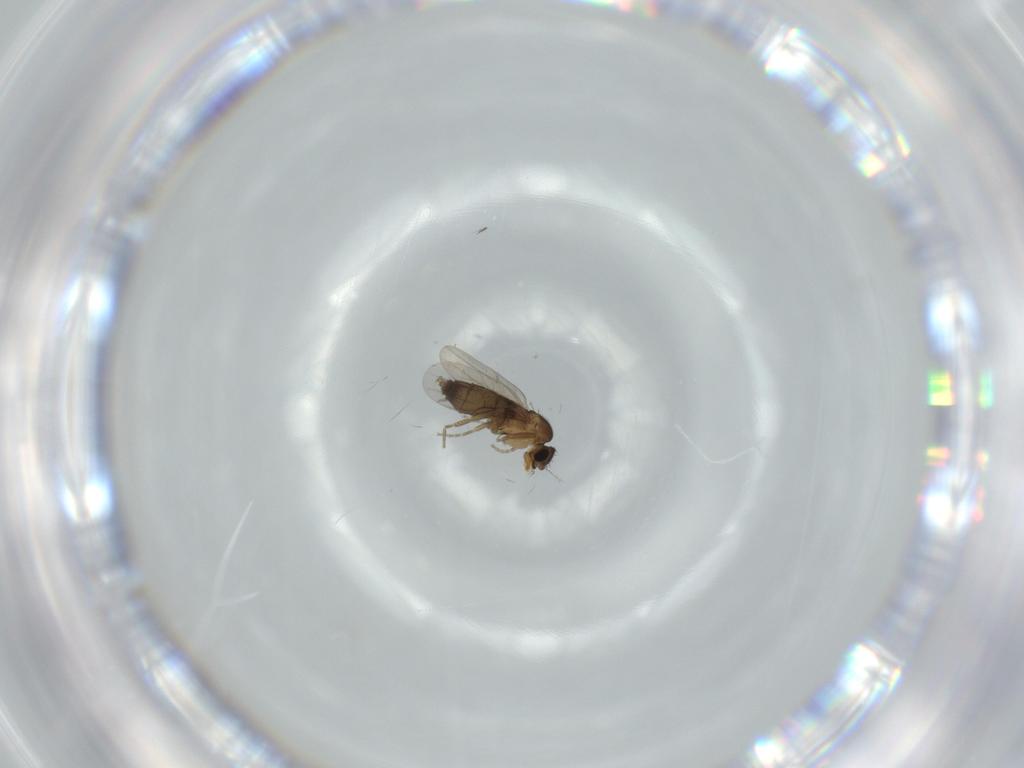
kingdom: Animalia
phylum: Arthropoda
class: Insecta
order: Diptera
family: Phoridae
